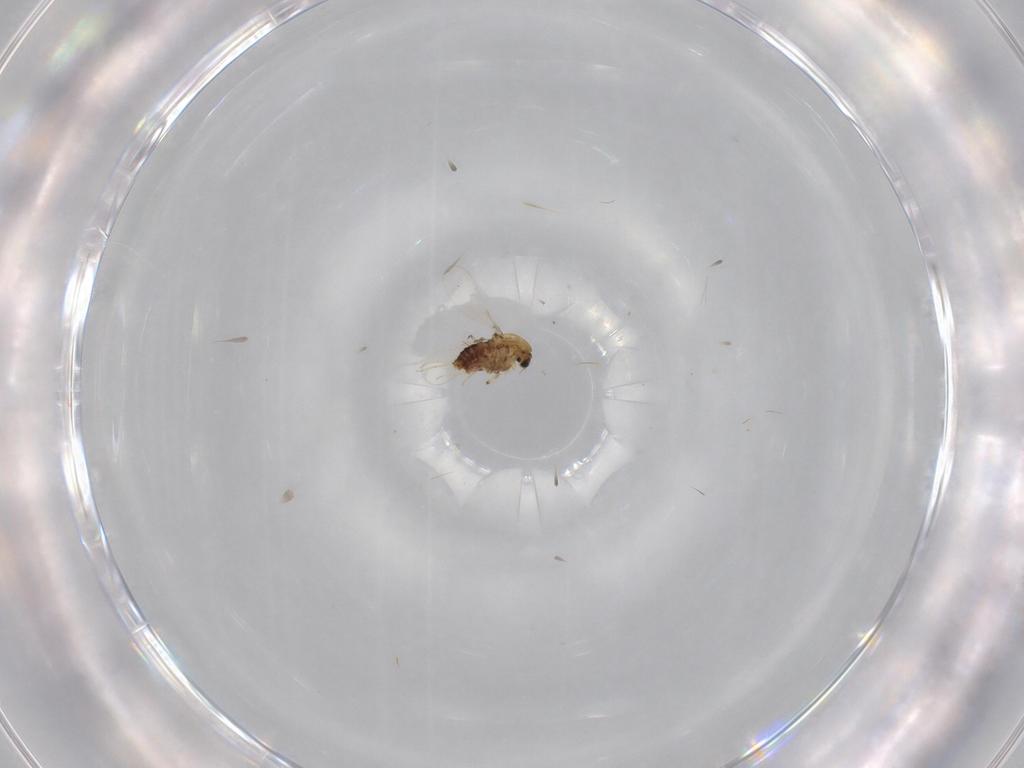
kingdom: Animalia
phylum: Arthropoda
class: Insecta
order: Diptera
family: Chironomidae
